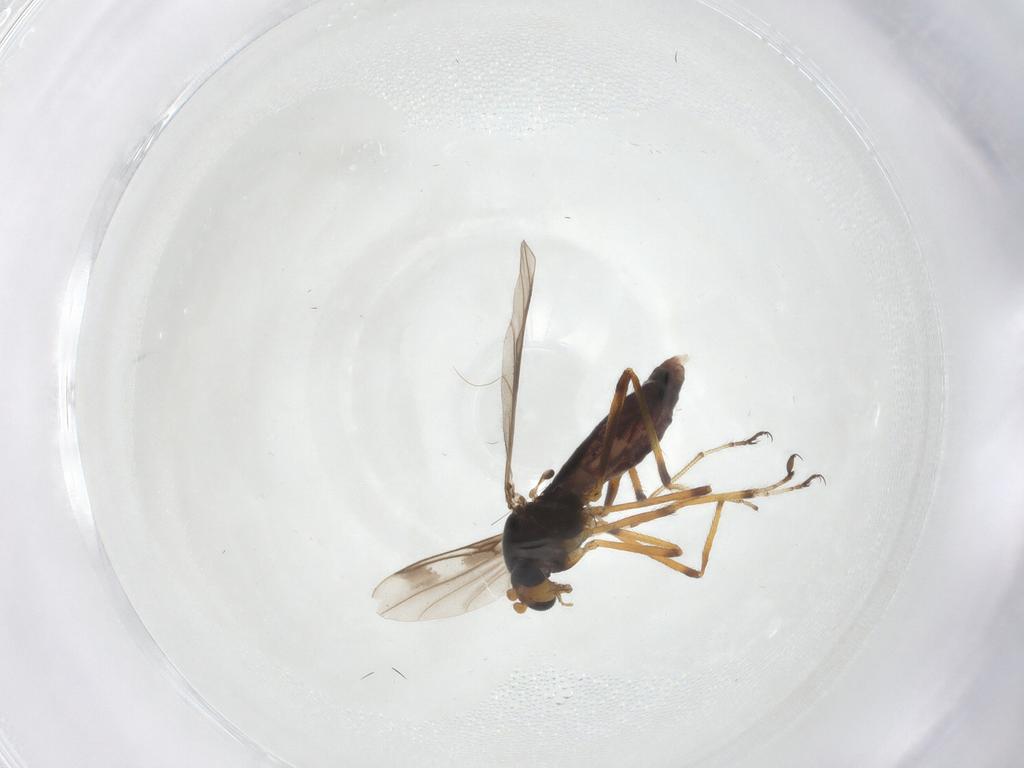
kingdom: Animalia
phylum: Arthropoda
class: Insecta
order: Diptera
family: Ceratopogonidae
